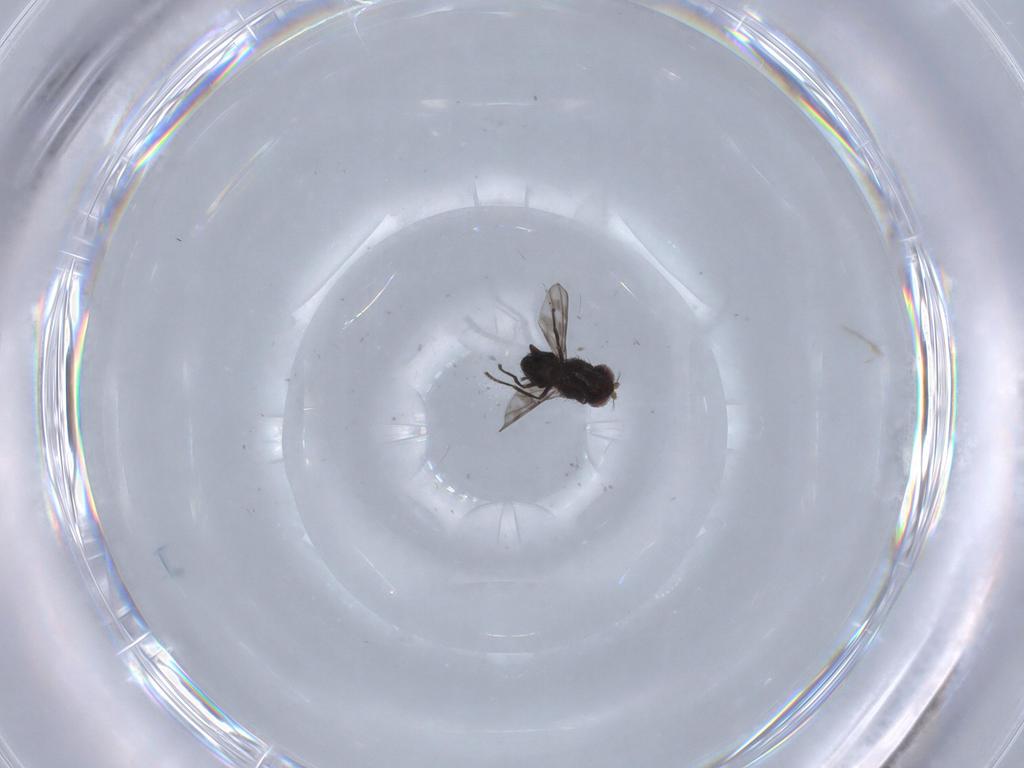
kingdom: Animalia
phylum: Arthropoda
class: Insecta
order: Diptera
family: Ephydridae
